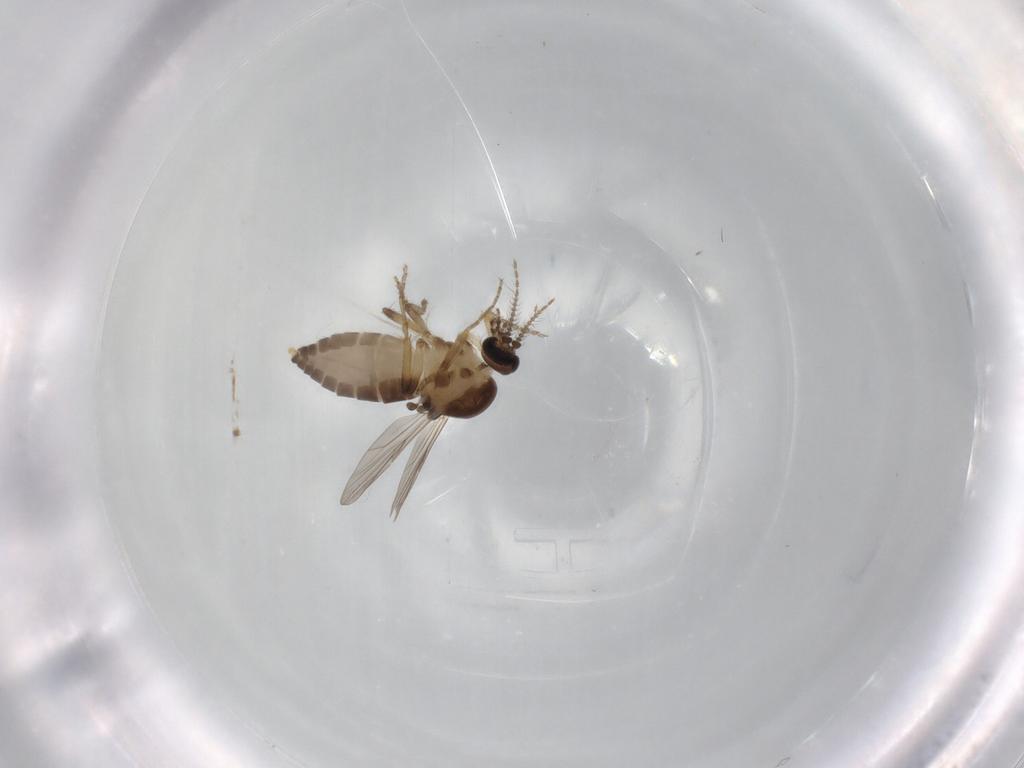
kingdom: Animalia
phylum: Arthropoda
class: Insecta
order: Diptera
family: Ceratopogonidae
